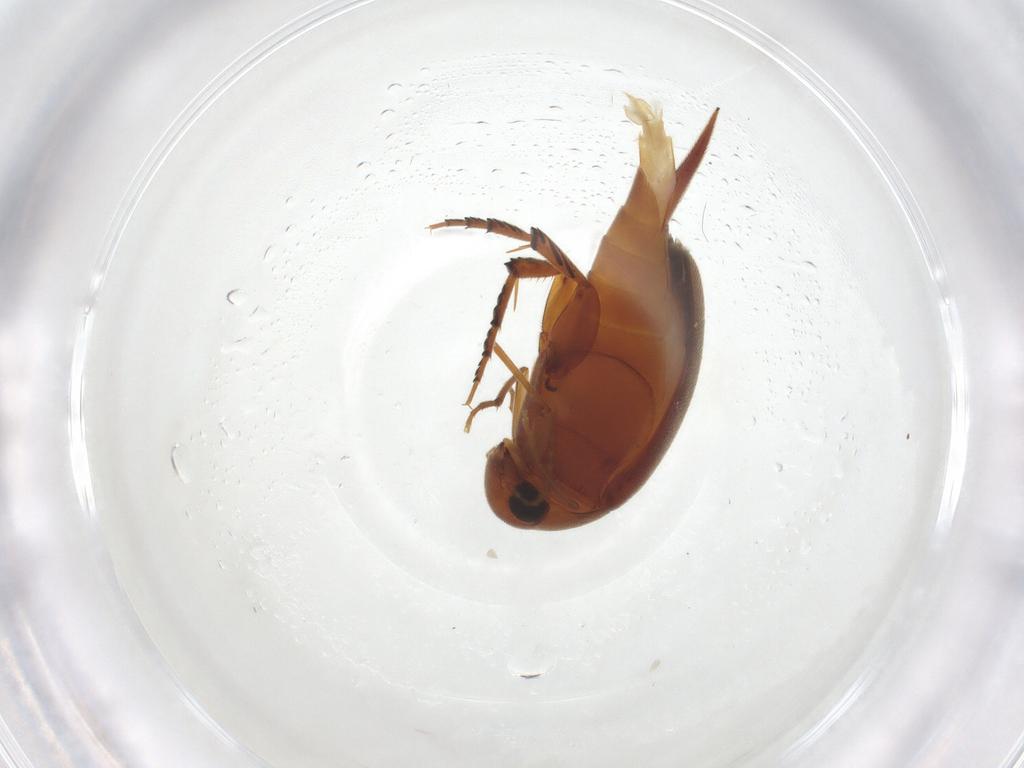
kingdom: Animalia
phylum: Arthropoda
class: Insecta
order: Coleoptera
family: Mordellidae
